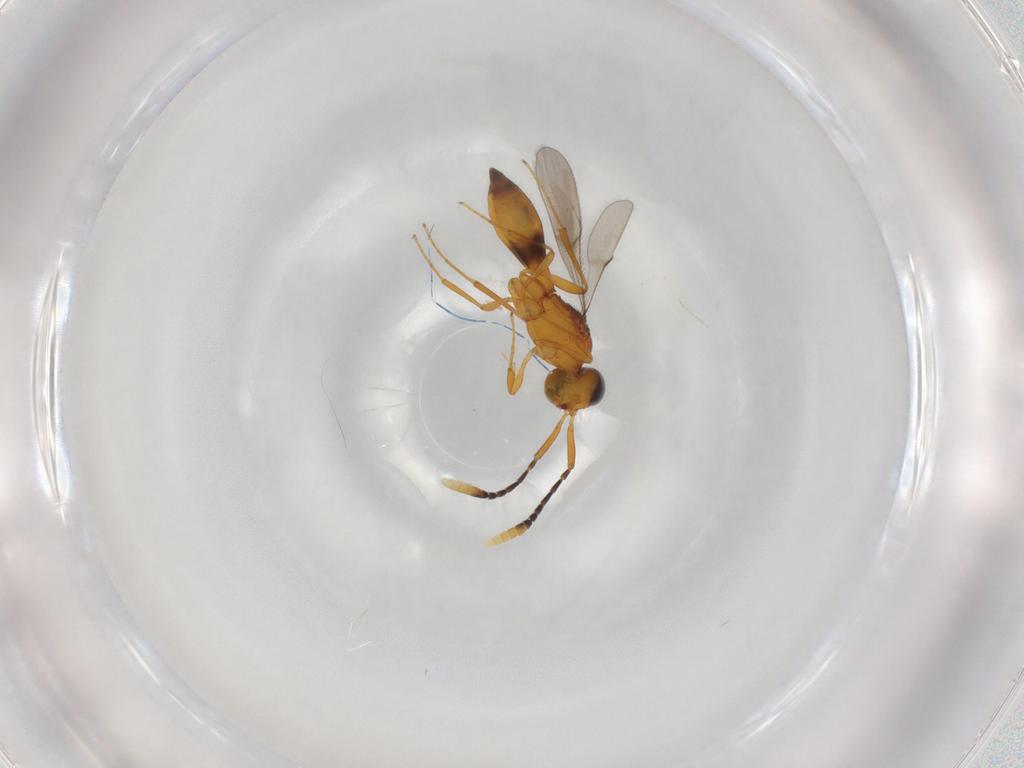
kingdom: Animalia
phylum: Arthropoda
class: Insecta
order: Hymenoptera
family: Scelionidae
